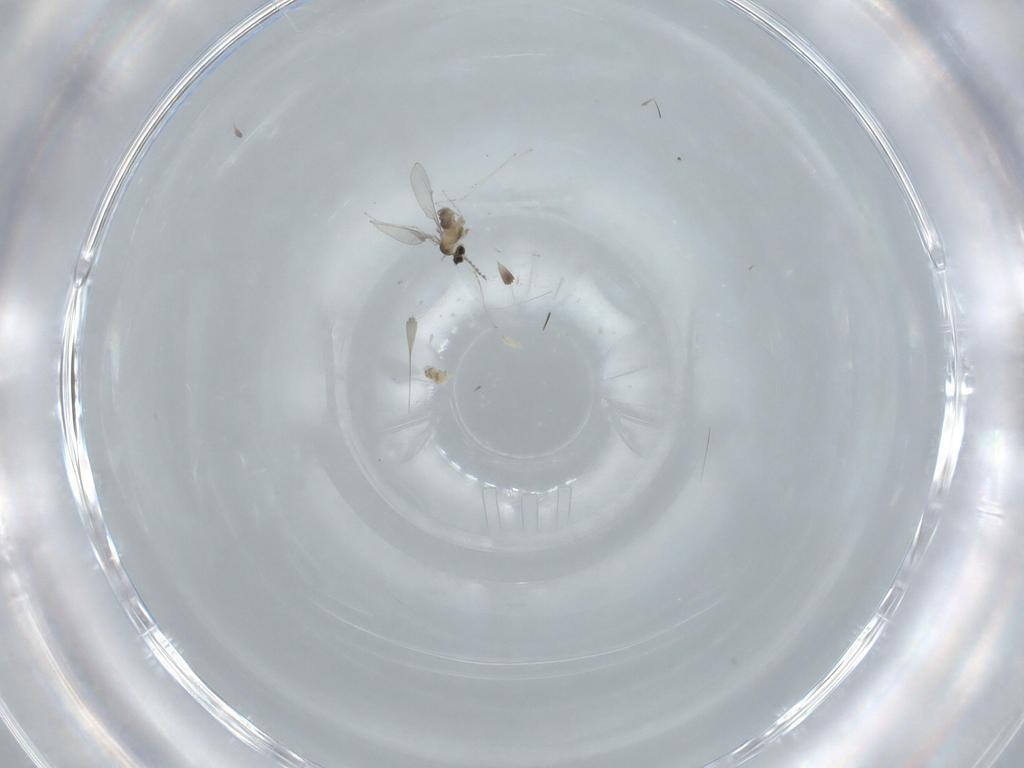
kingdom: Animalia
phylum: Arthropoda
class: Insecta
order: Diptera
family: Cecidomyiidae
